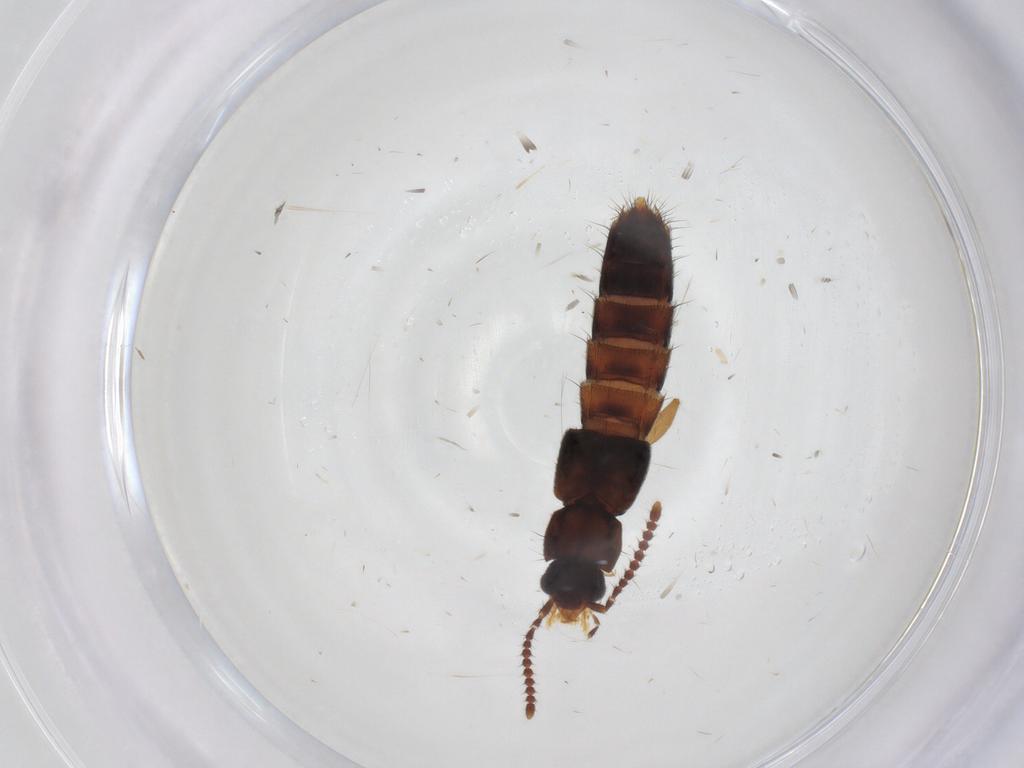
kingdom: Animalia
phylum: Arthropoda
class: Insecta
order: Coleoptera
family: Staphylinidae
